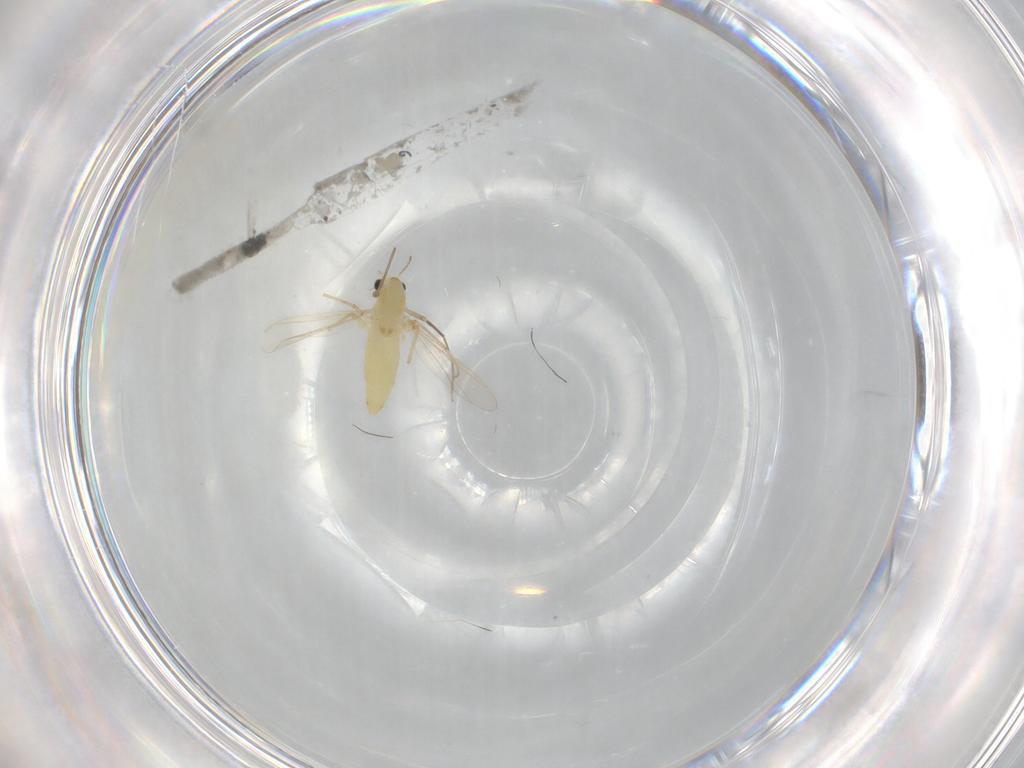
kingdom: Animalia
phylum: Arthropoda
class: Insecta
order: Diptera
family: Chironomidae
